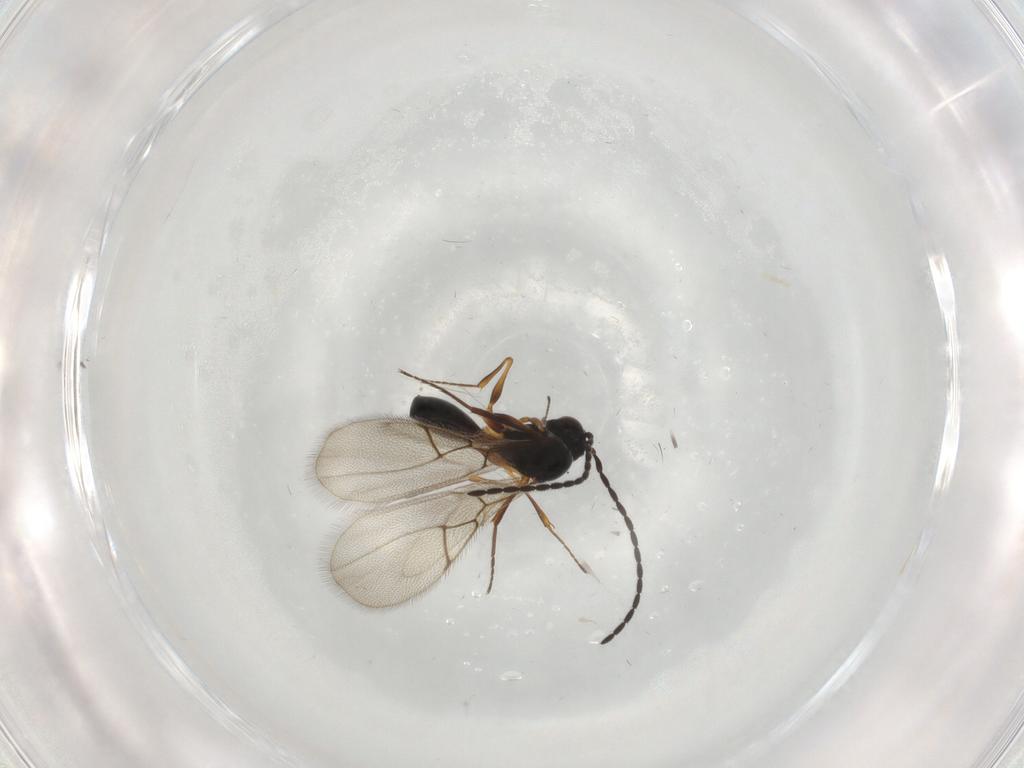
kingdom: Animalia
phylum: Arthropoda
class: Insecta
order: Hymenoptera
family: Figitidae
